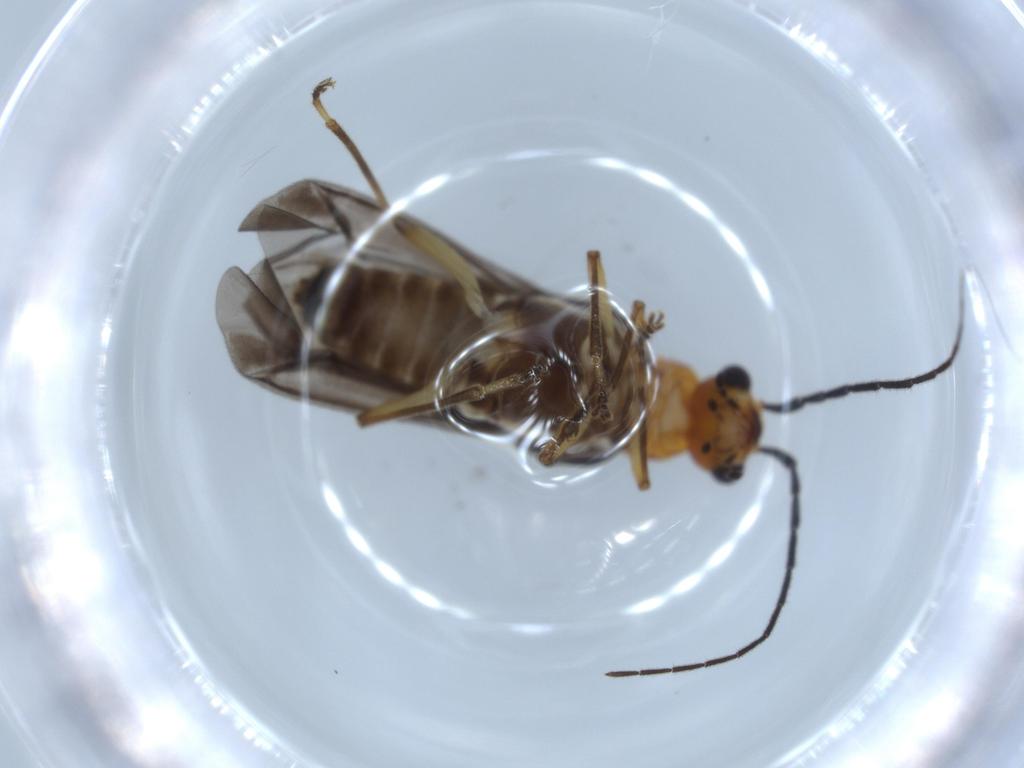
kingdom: Animalia
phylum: Arthropoda
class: Insecta
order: Coleoptera
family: Cantharidae
